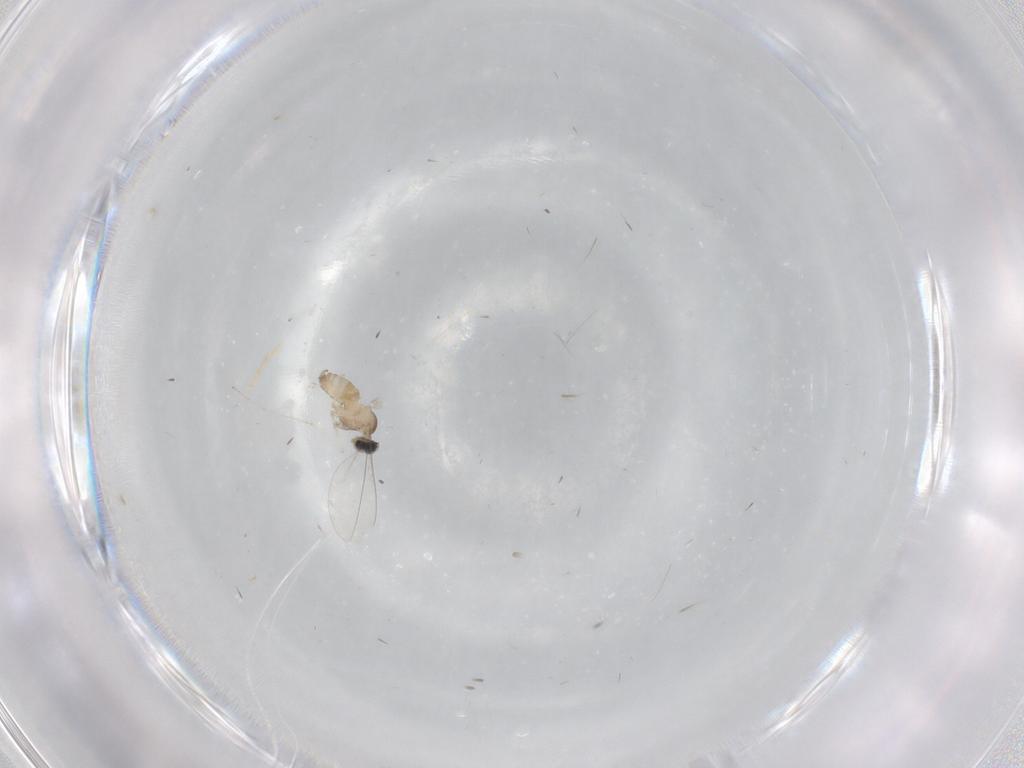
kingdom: Animalia
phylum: Arthropoda
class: Insecta
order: Diptera
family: Cecidomyiidae
